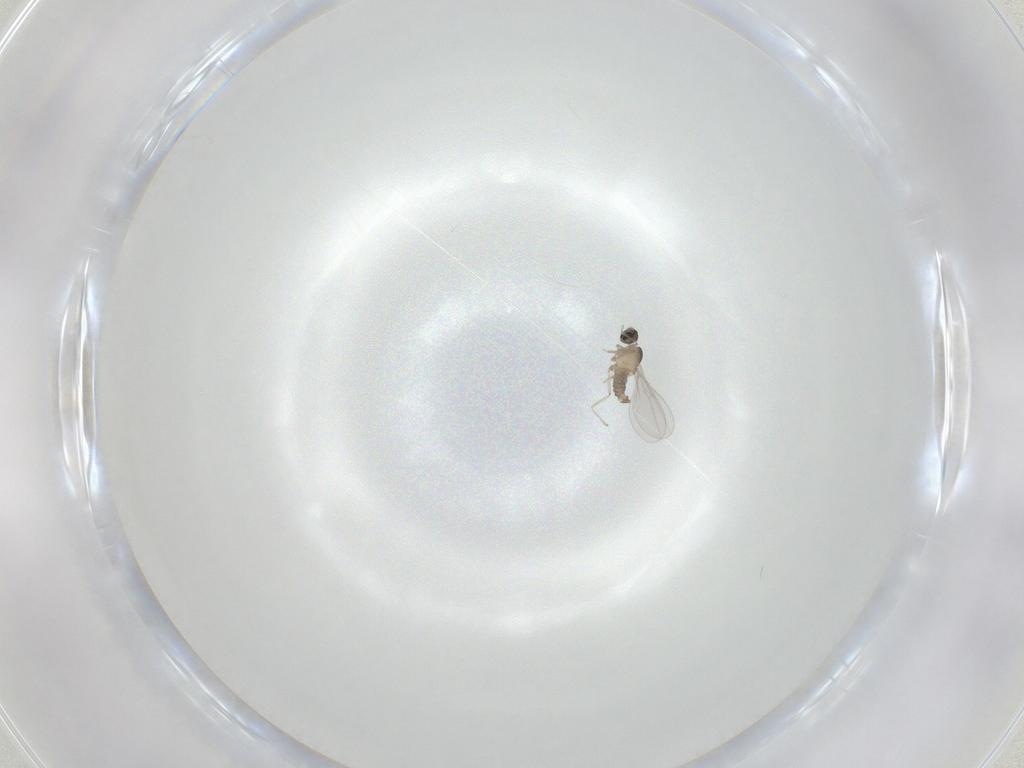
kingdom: Animalia
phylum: Arthropoda
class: Insecta
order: Diptera
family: Cecidomyiidae
